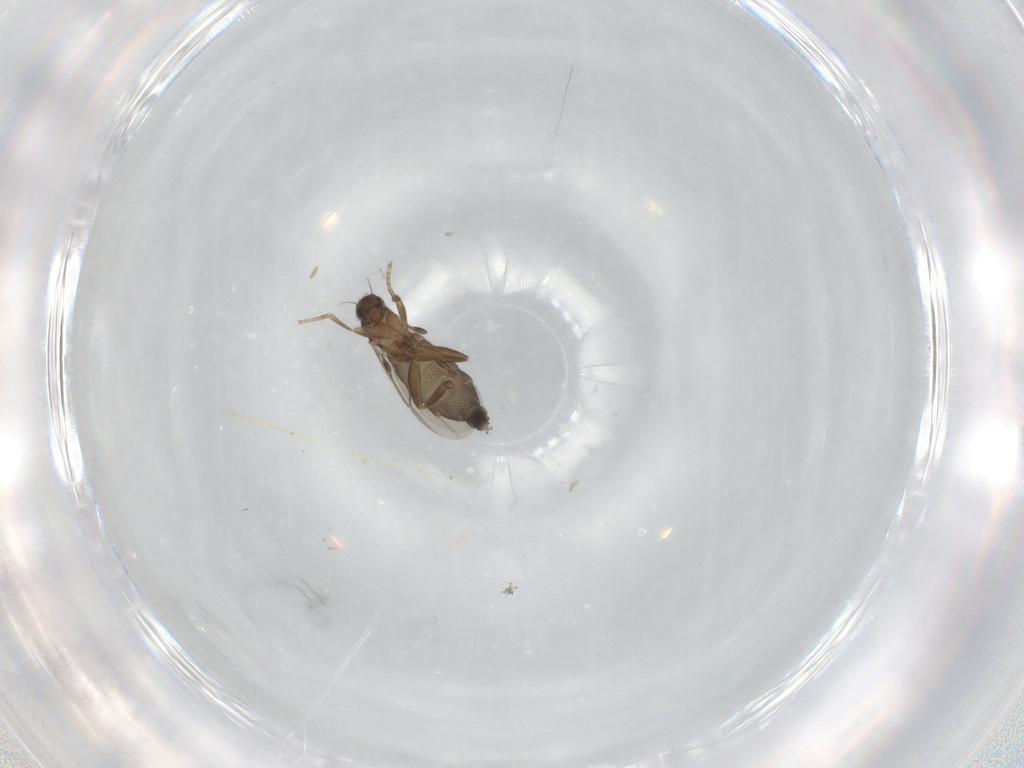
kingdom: Animalia
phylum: Arthropoda
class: Insecta
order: Diptera
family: Phoridae
